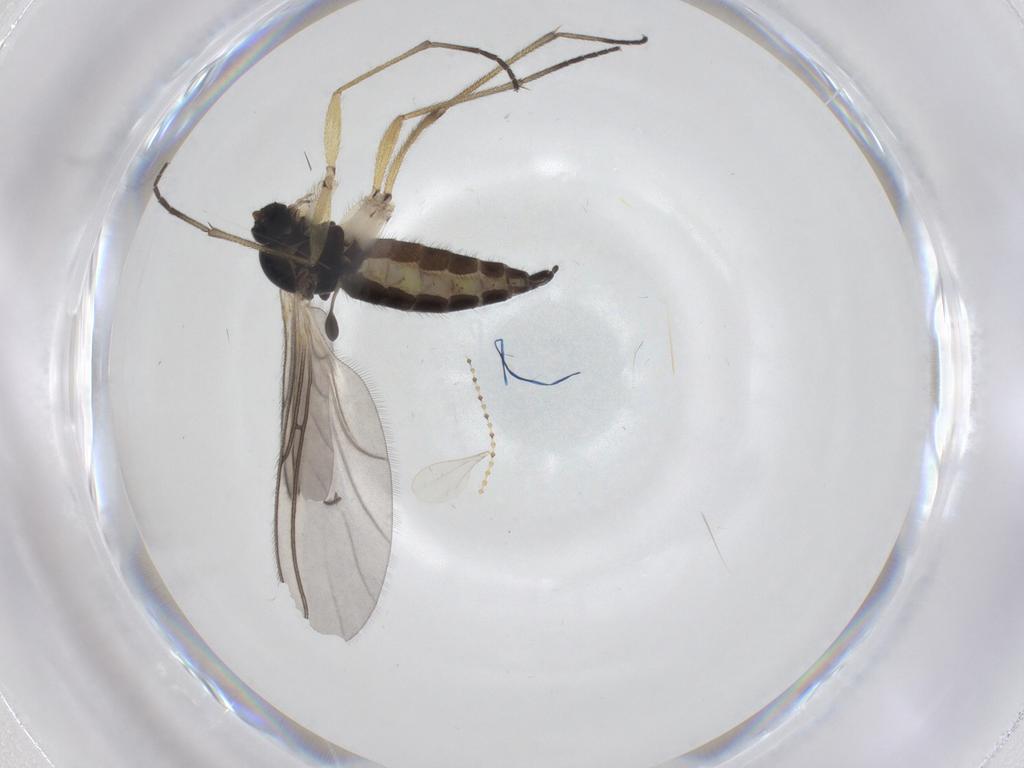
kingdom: Animalia
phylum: Arthropoda
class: Insecta
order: Diptera
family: Sciaridae
